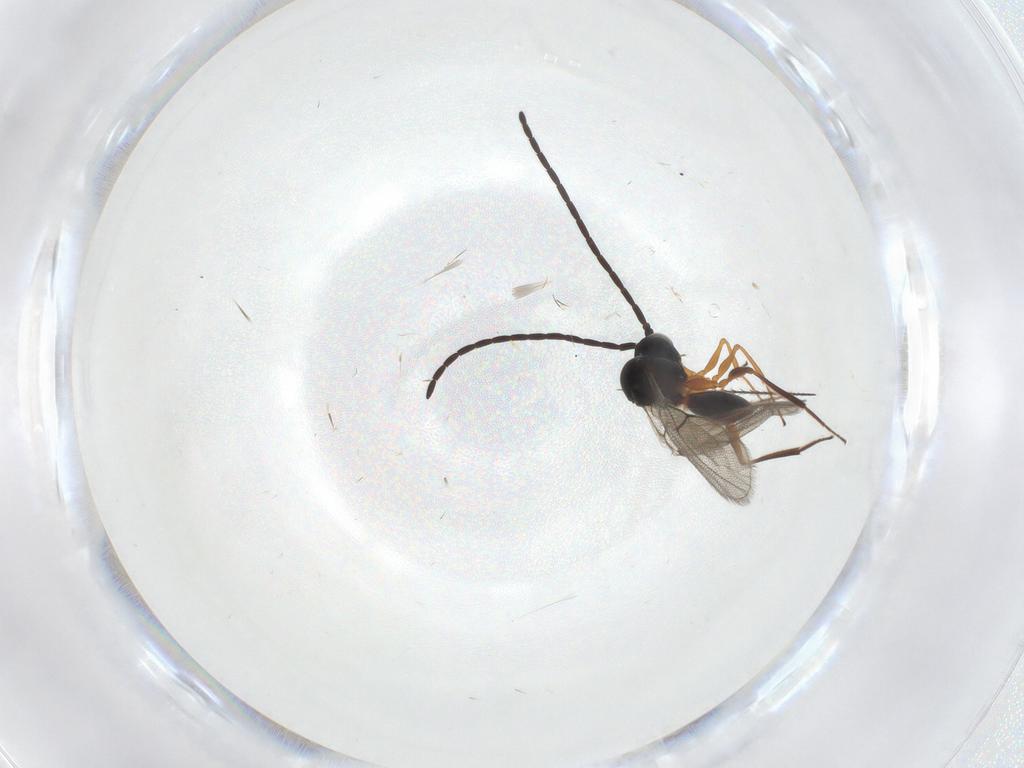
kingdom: Animalia
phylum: Arthropoda
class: Insecta
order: Hymenoptera
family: Figitidae
